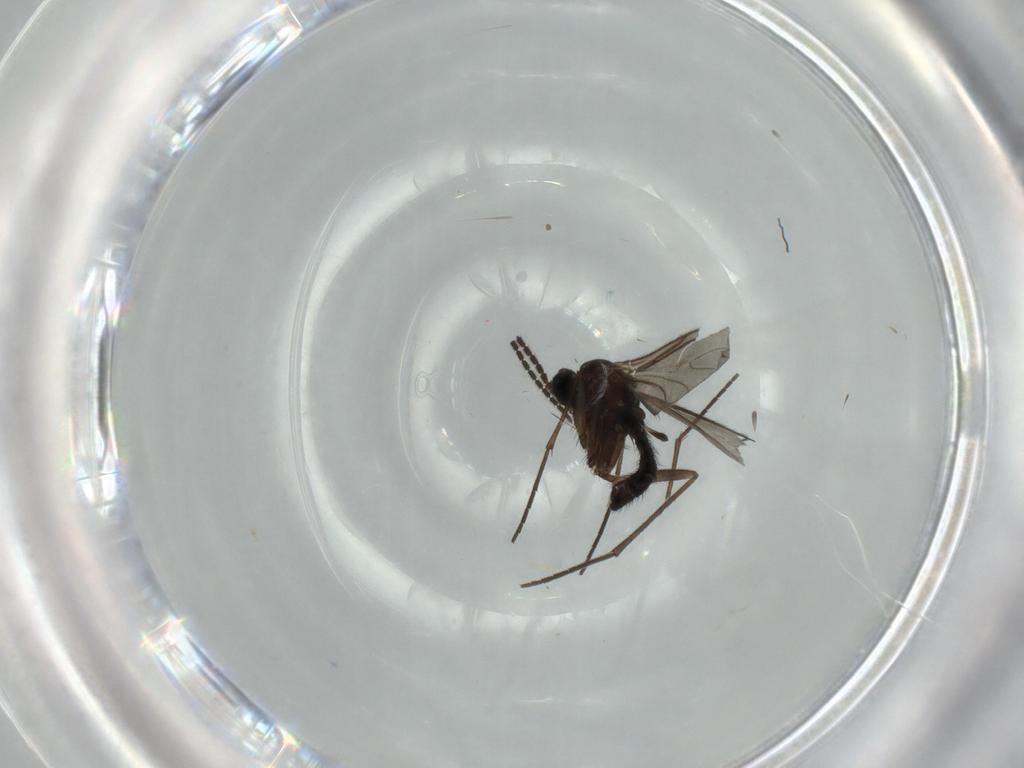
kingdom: Animalia
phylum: Arthropoda
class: Insecta
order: Diptera
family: Sciaridae
